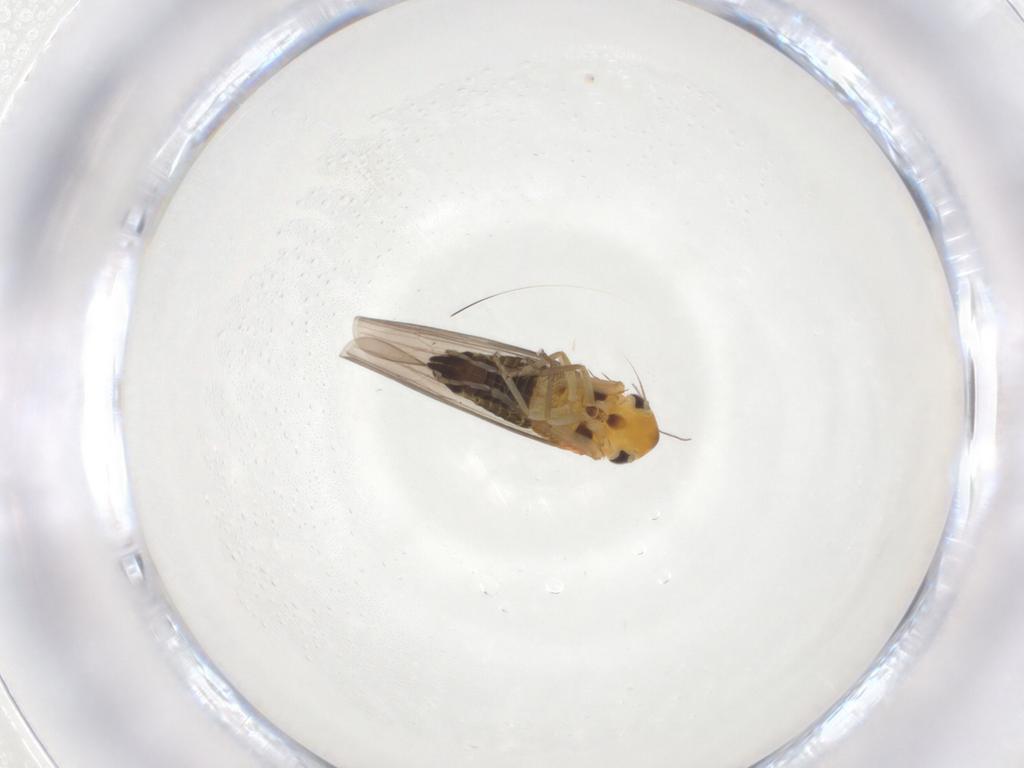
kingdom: Animalia
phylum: Arthropoda
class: Insecta
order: Hemiptera
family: Cicadellidae
